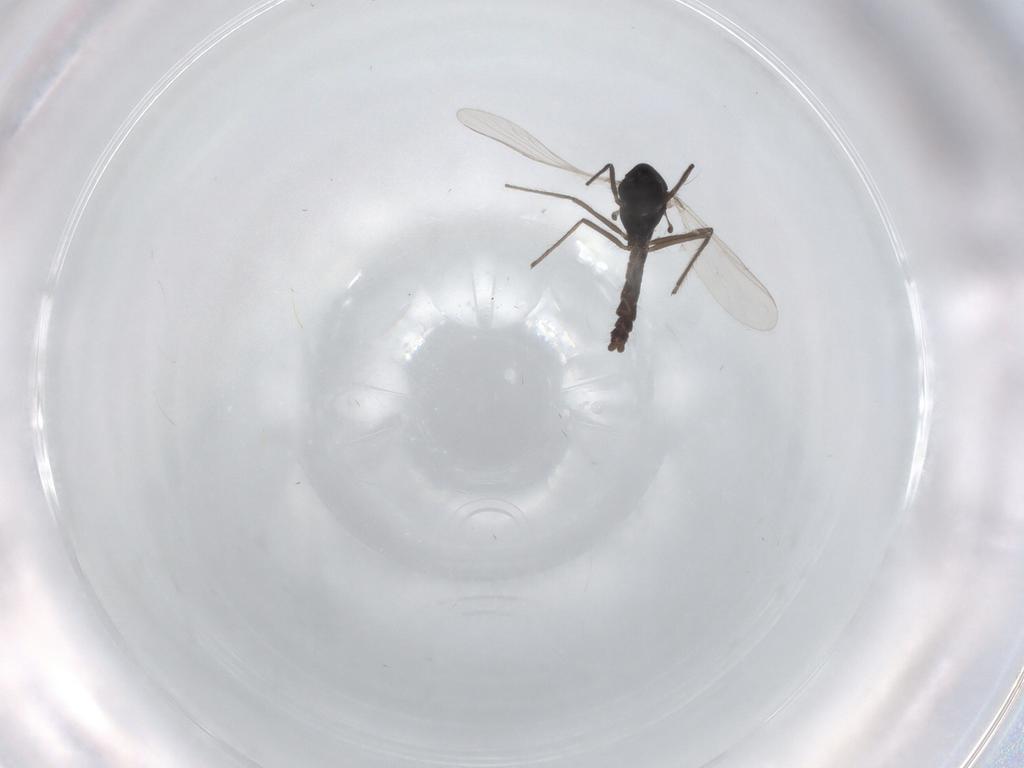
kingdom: Animalia
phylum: Arthropoda
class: Insecta
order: Diptera
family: Chironomidae
